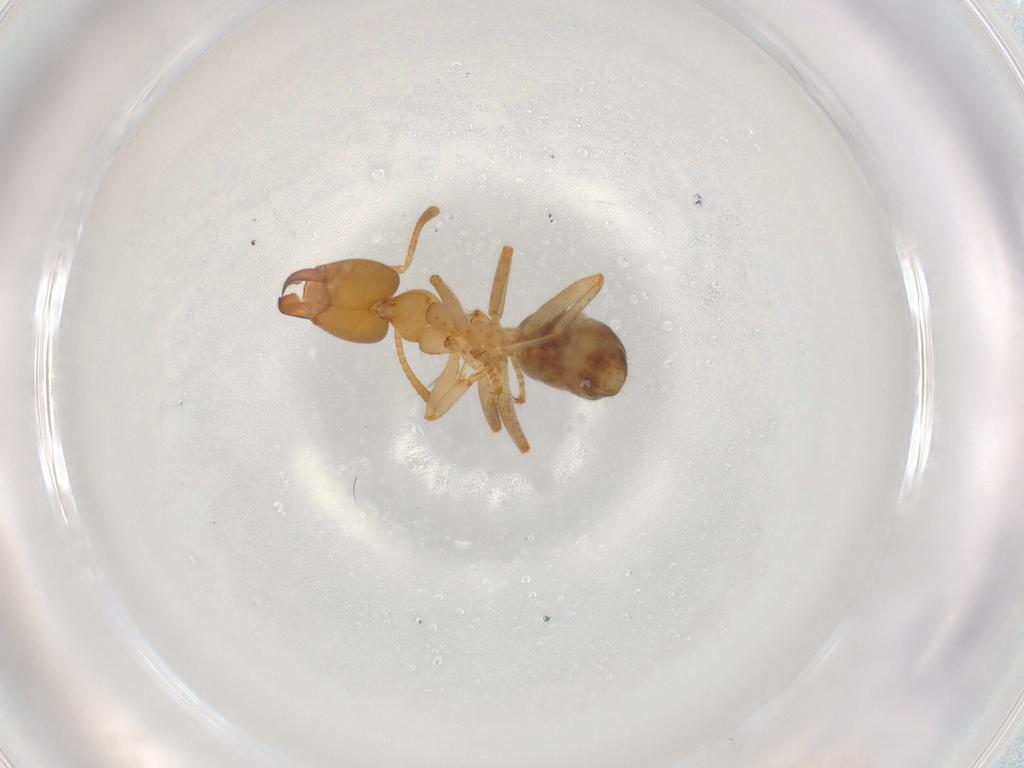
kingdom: Animalia
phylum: Arthropoda
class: Insecta
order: Hymenoptera
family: Formicidae
